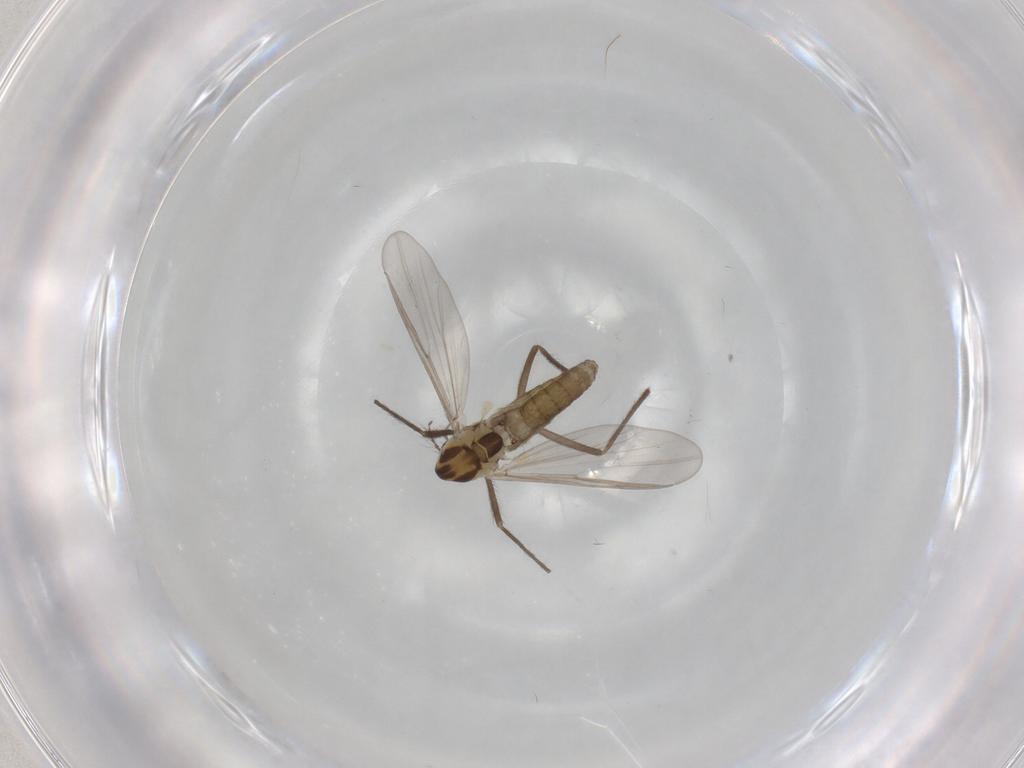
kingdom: Animalia
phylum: Arthropoda
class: Insecta
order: Diptera
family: Chironomidae
